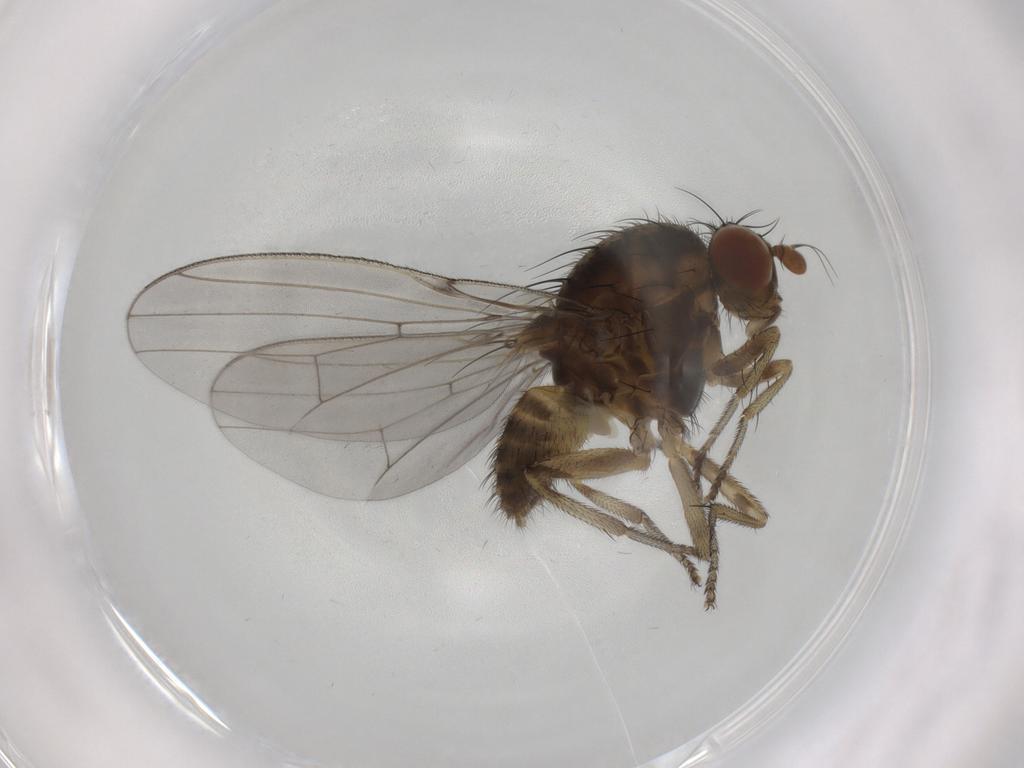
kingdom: Animalia
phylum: Arthropoda
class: Insecta
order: Diptera
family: Lauxaniidae
